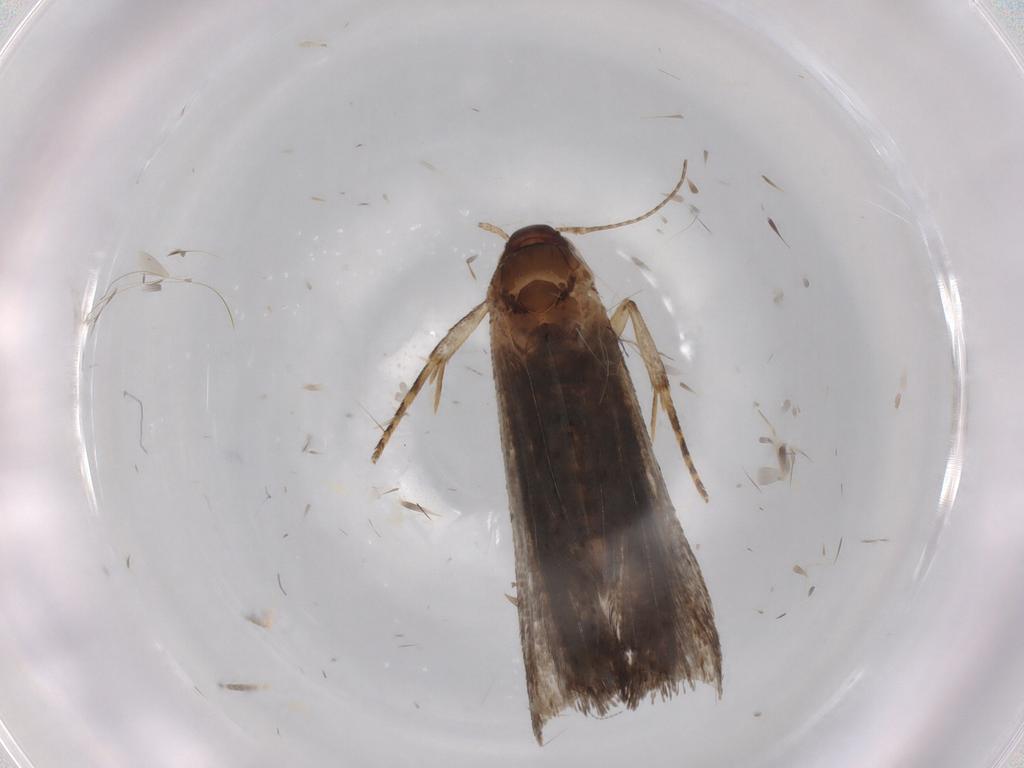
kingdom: Animalia
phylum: Arthropoda
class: Insecta
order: Lepidoptera
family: Crambidae
